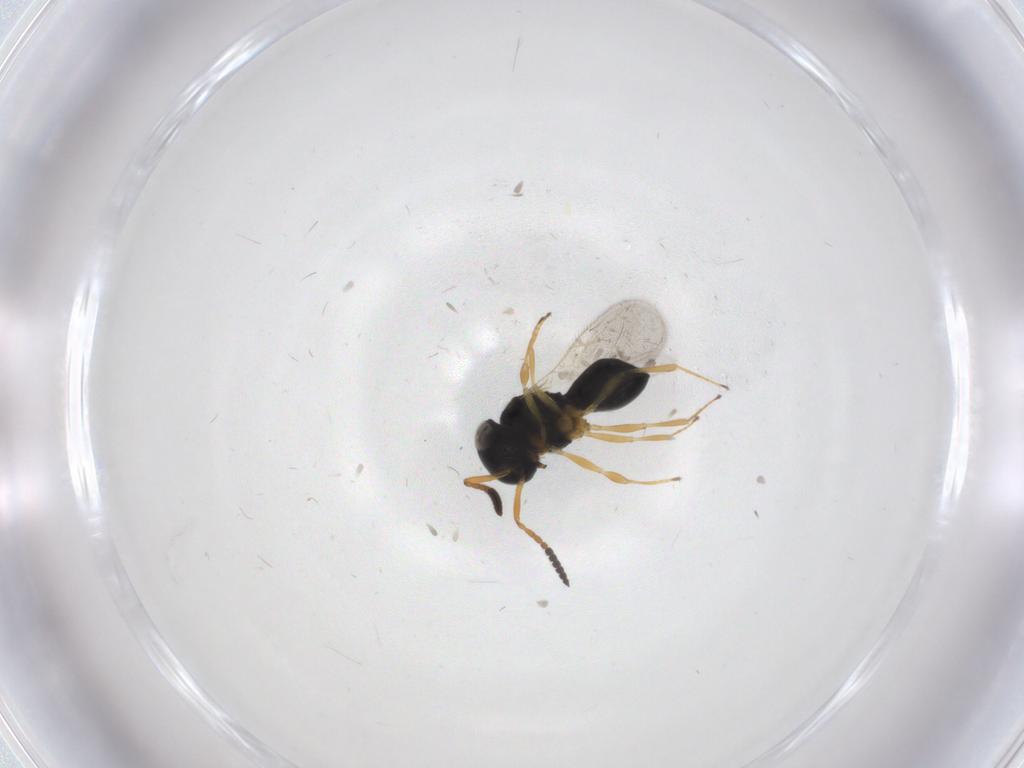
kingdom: Animalia
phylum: Arthropoda
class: Insecta
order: Hymenoptera
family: Scelionidae
